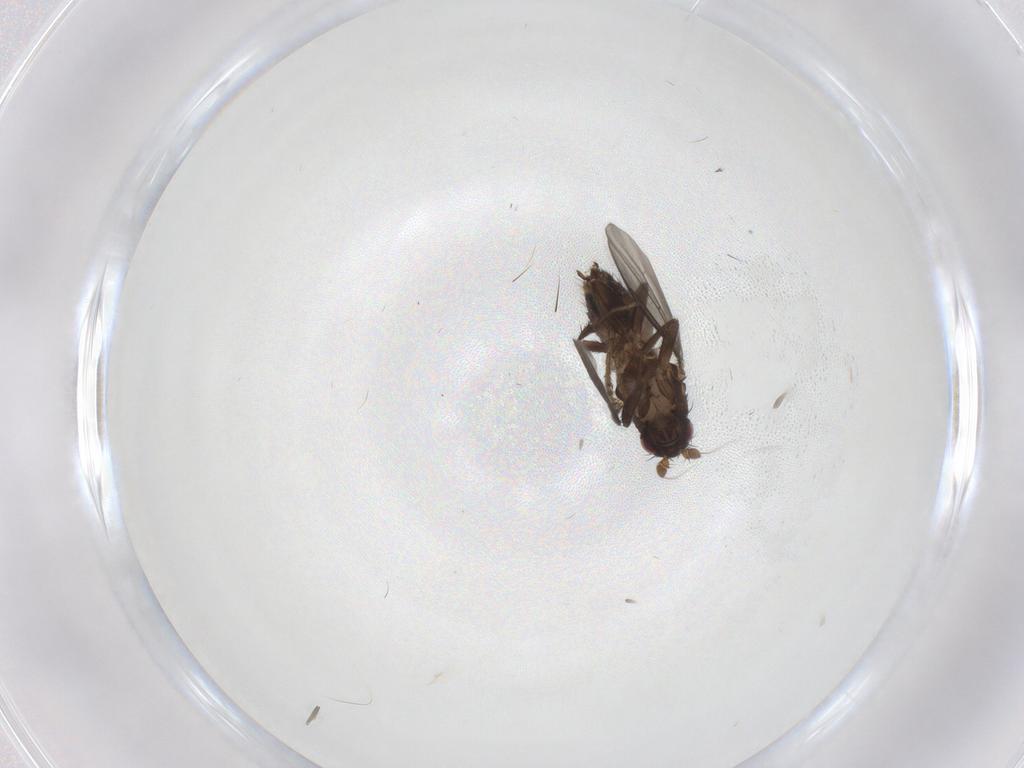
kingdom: Animalia
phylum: Arthropoda
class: Insecta
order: Diptera
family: Sphaeroceridae
